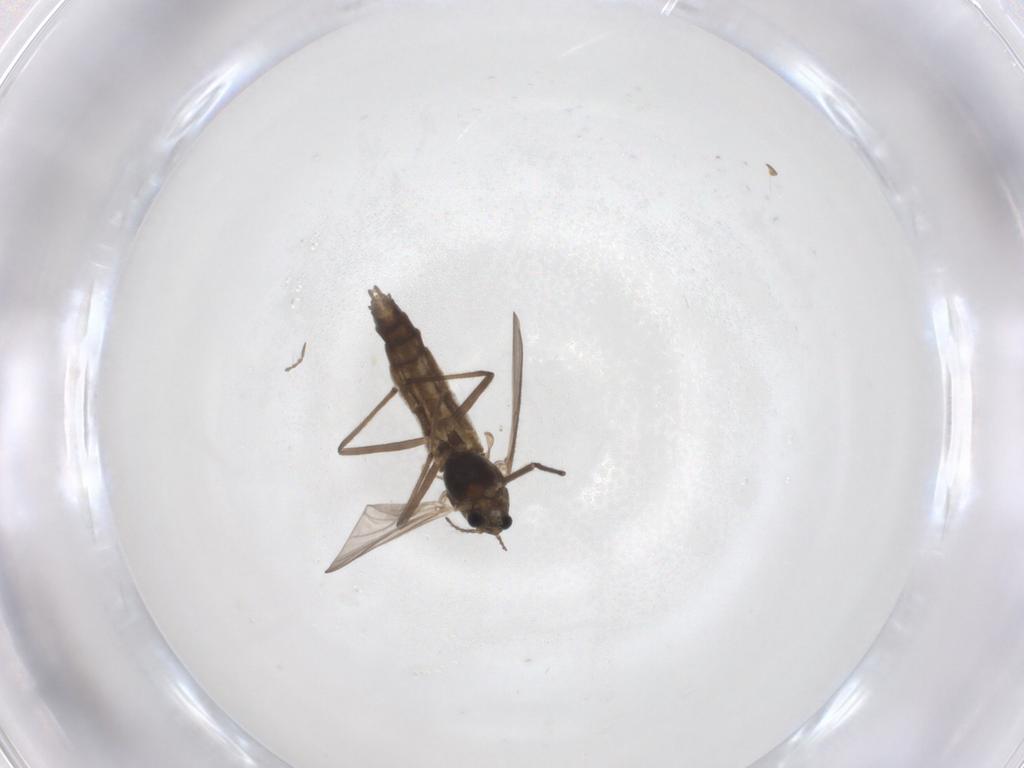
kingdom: Animalia
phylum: Arthropoda
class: Insecta
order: Diptera
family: Chironomidae
